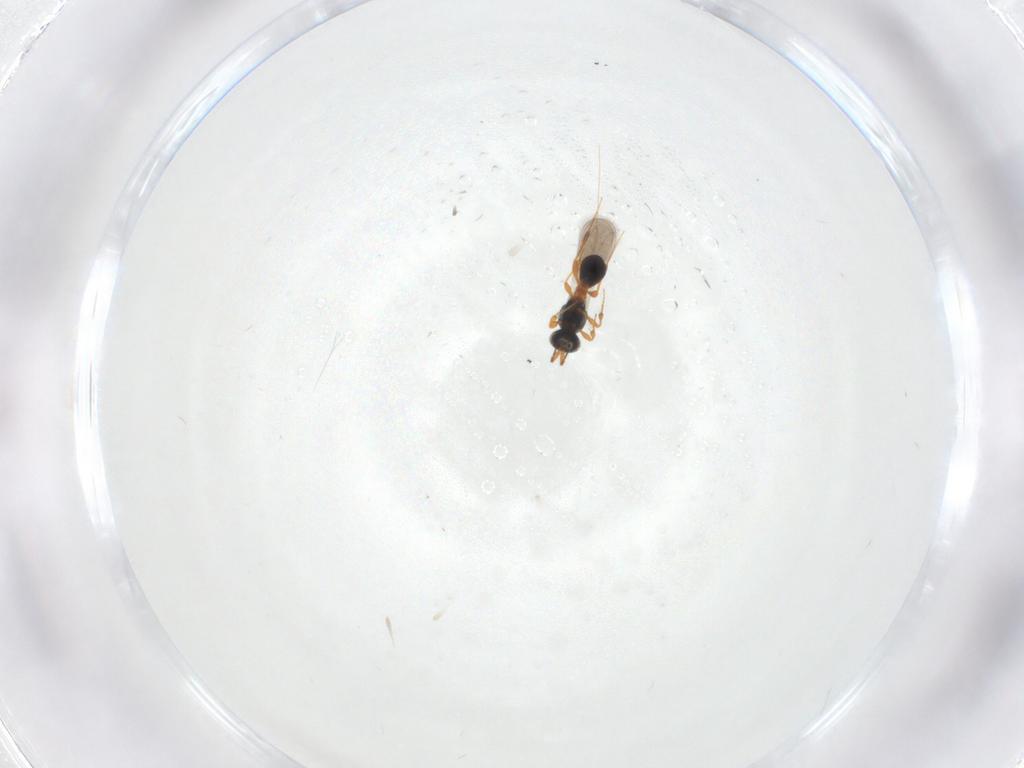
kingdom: Animalia
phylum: Arthropoda
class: Insecta
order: Hymenoptera
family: Platygastridae
